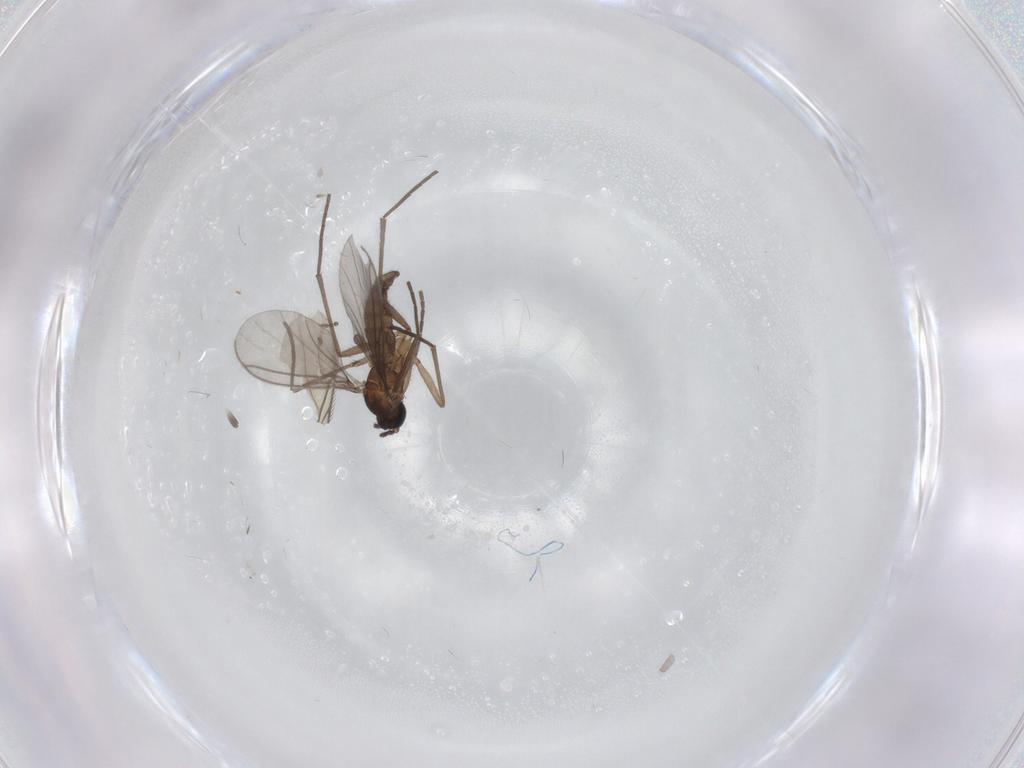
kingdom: Animalia
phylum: Arthropoda
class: Insecta
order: Diptera
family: Sciaridae
